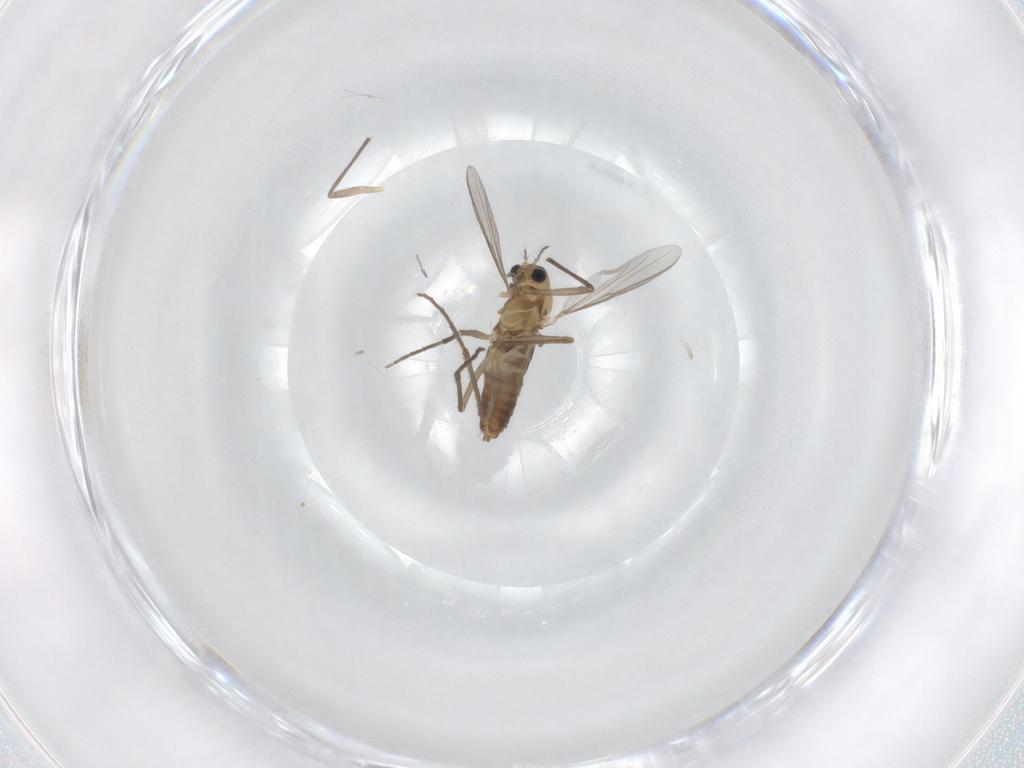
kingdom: Animalia
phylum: Arthropoda
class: Insecta
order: Diptera
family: Chironomidae
